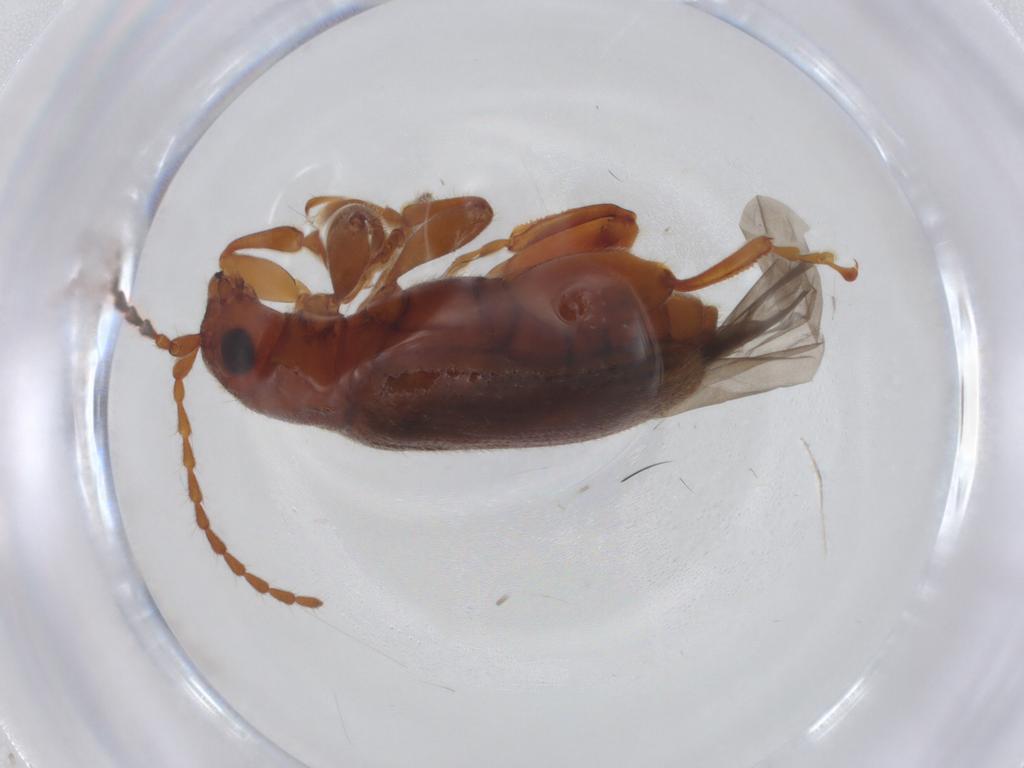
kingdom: Animalia
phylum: Arthropoda
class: Insecta
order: Coleoptera
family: Chrysomelidae
